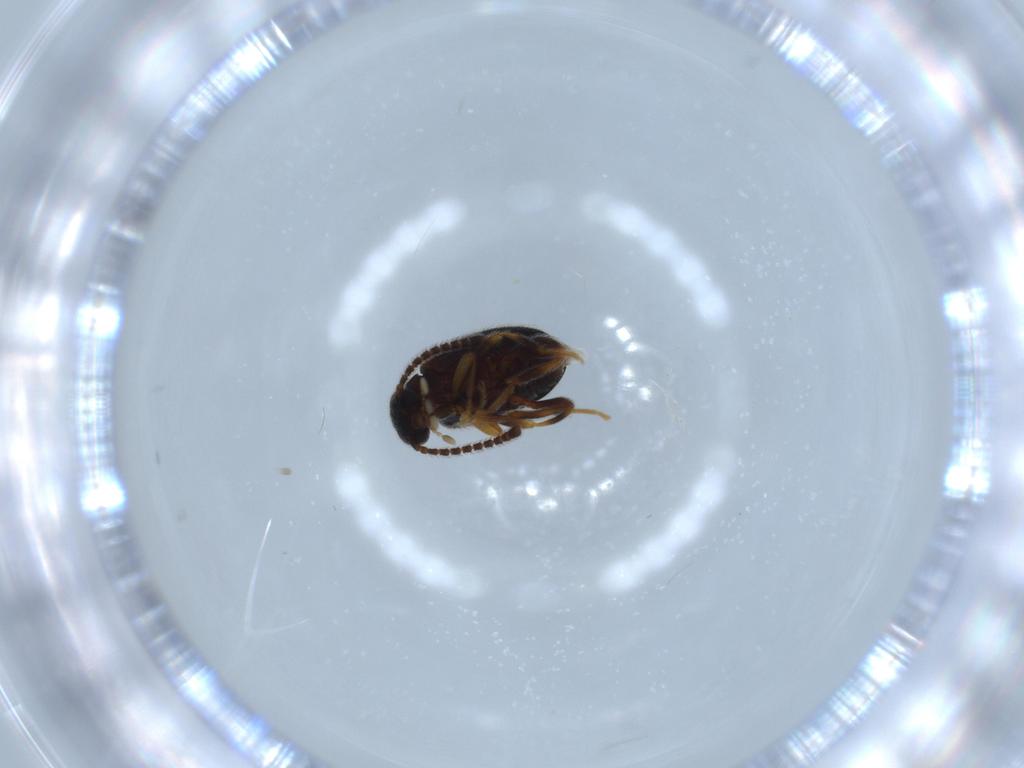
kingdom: Animalia
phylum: Arthropoda
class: Insecta
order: Coleoptera
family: Aderidae
